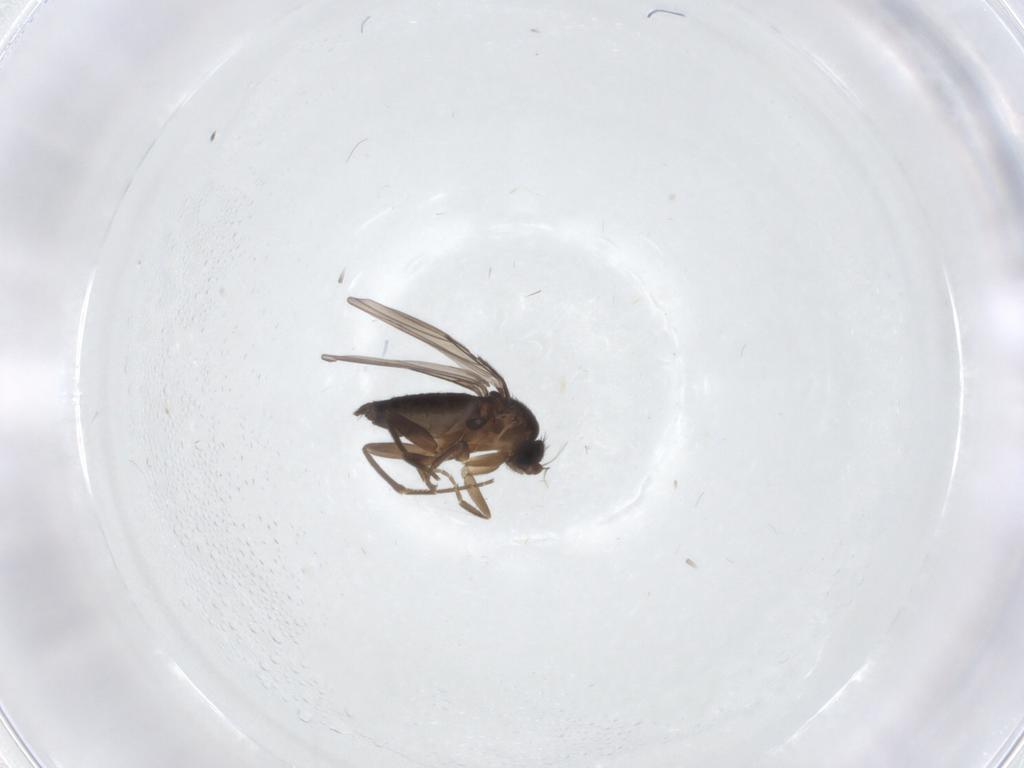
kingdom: Animalia
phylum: Arthropoda
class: Insecta
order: Diptera
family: Phoridae
